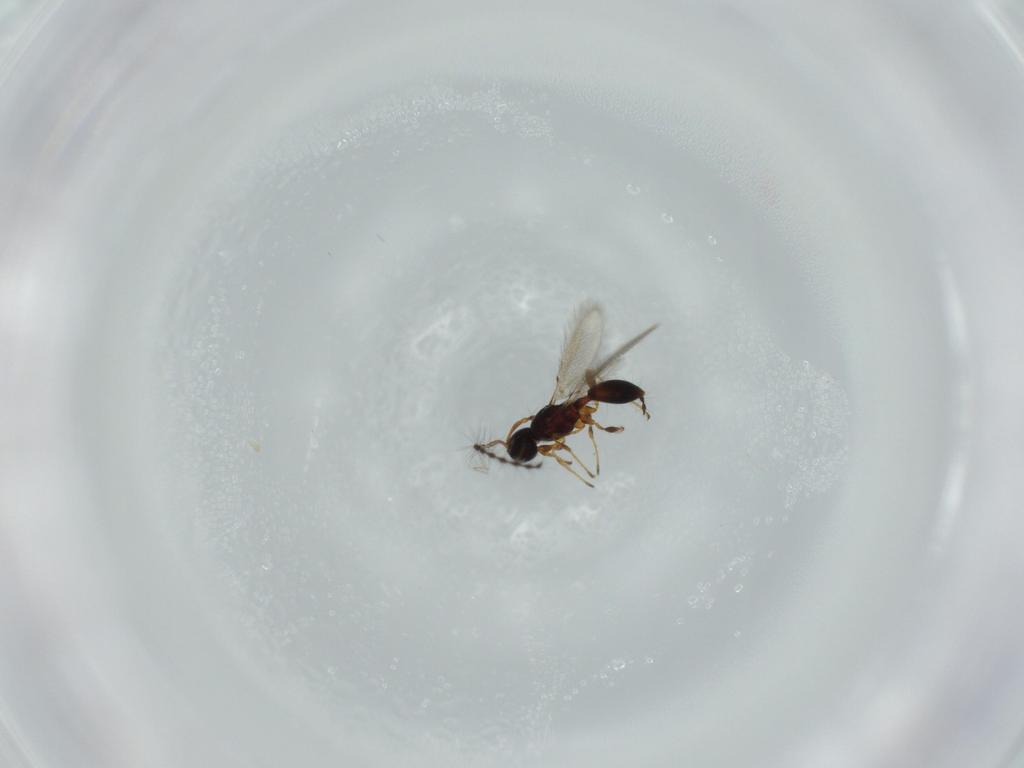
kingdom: Animalia
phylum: Arthropoda
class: Insecta
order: Hymenoptera
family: Diapriidae
